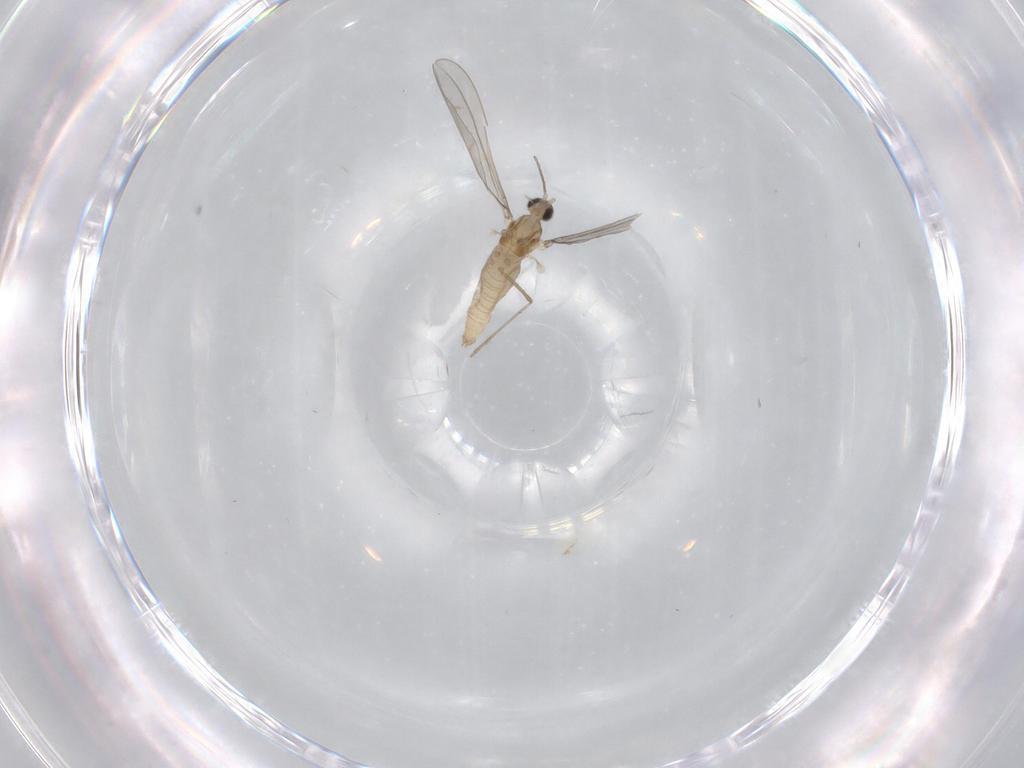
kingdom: Animalia
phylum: Arthropoda
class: Insecta
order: Diptera
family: Cecidomyiidae
